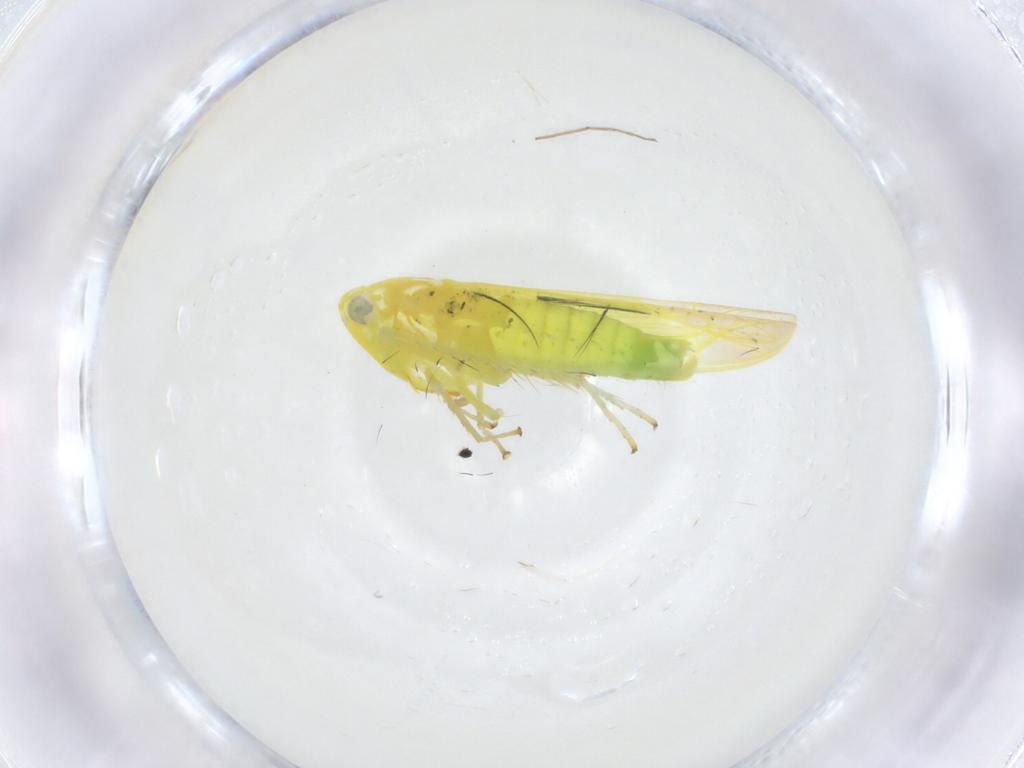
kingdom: Animalia
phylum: Arthropoda
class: Insecta
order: Hemiptera
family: Cicadellidae
